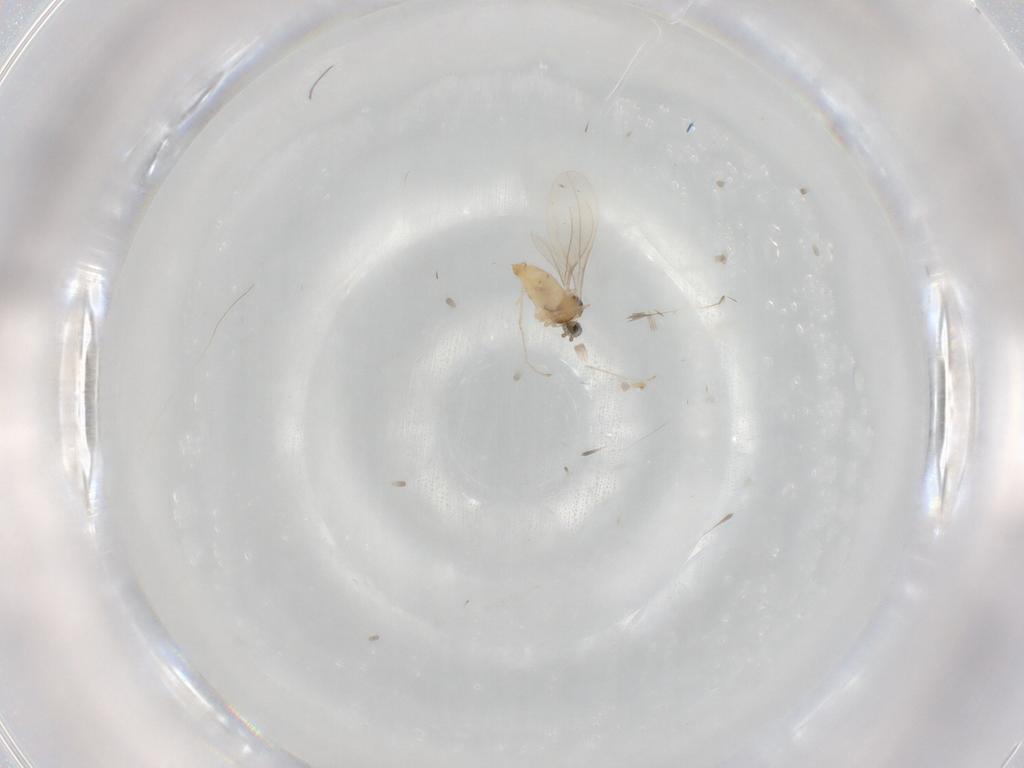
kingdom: Animalia
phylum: Arthropoda
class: Insecta
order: Diptera
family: Cecidomyiidae
